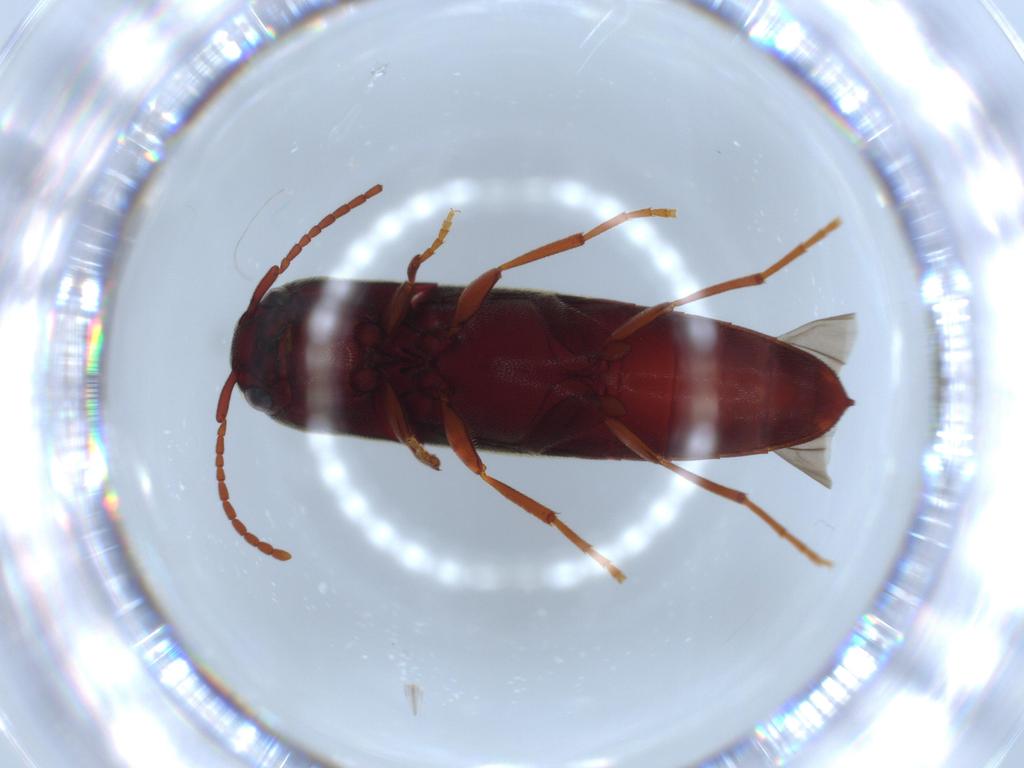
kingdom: Animalia
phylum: Arthropoda
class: Insecta
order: Coleoptera
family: Eucnemidae
